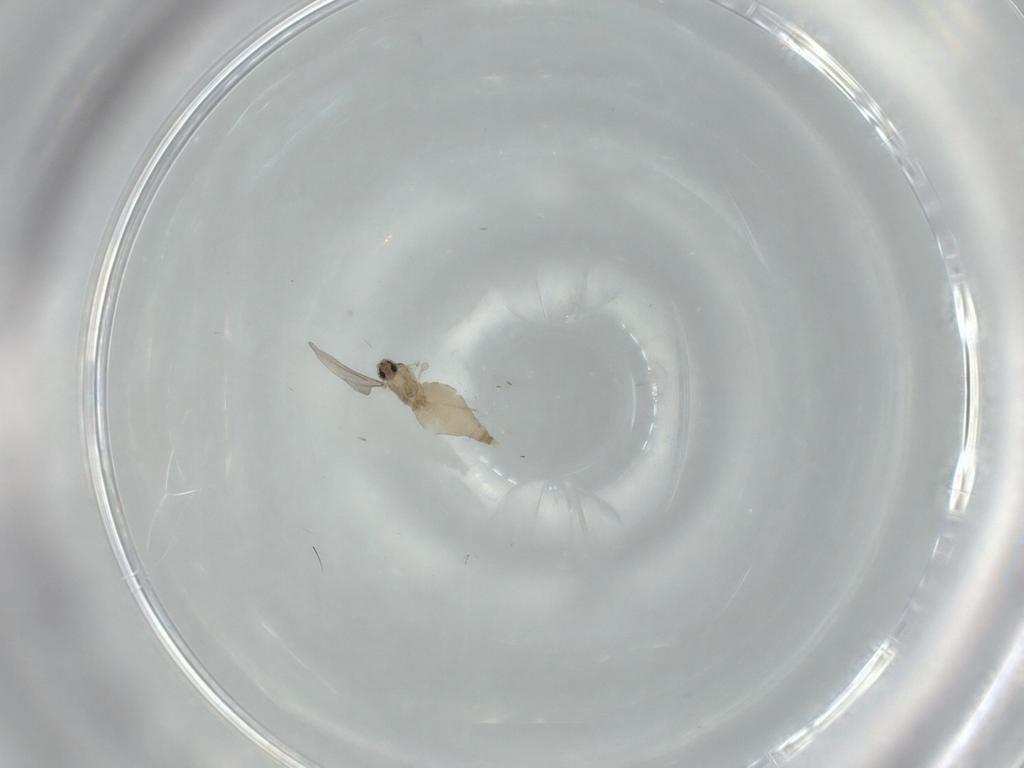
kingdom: Animalia
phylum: Arthropoda
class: Insecta
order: Diptera
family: Cecidomyiidae
